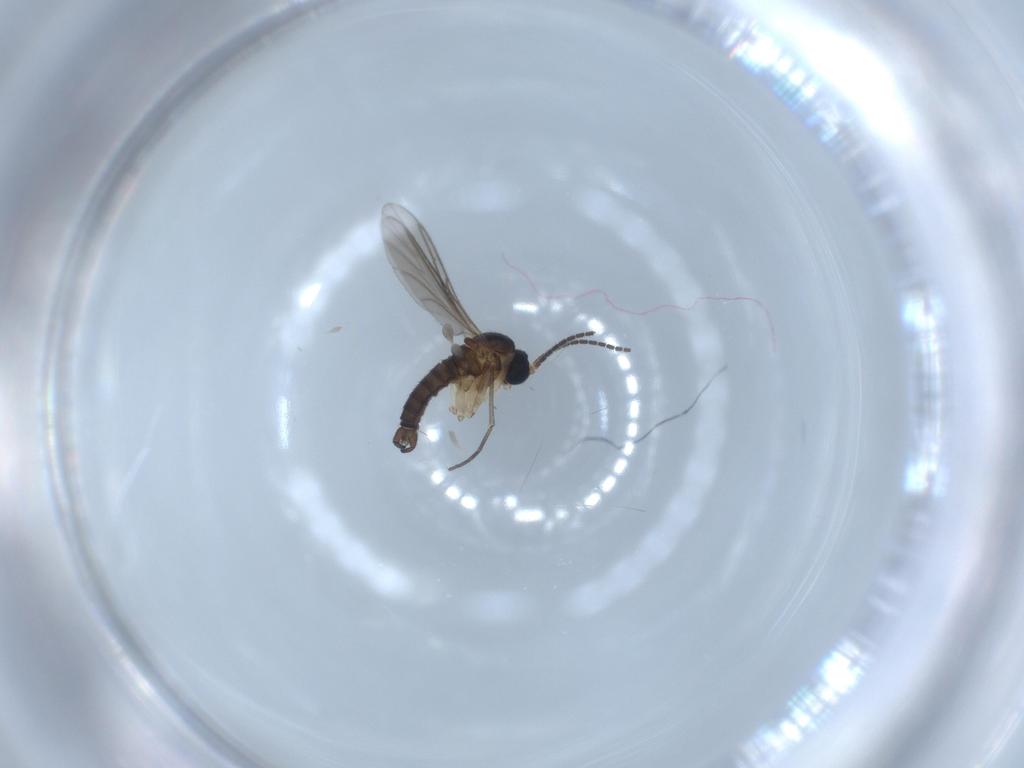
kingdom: Animalia
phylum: Arthropoda
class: Insecta
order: Diptera
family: Sciaridae
